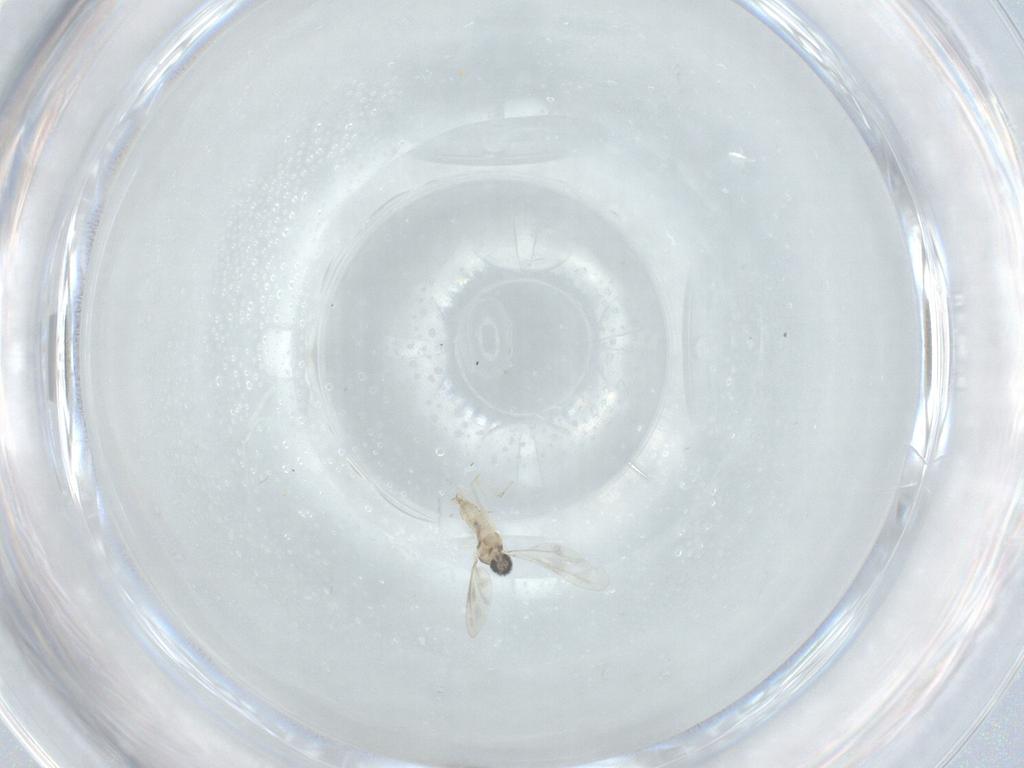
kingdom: Animalia
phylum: Arthropoda
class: Insecta
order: Diptera
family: Cecidomyiidae
